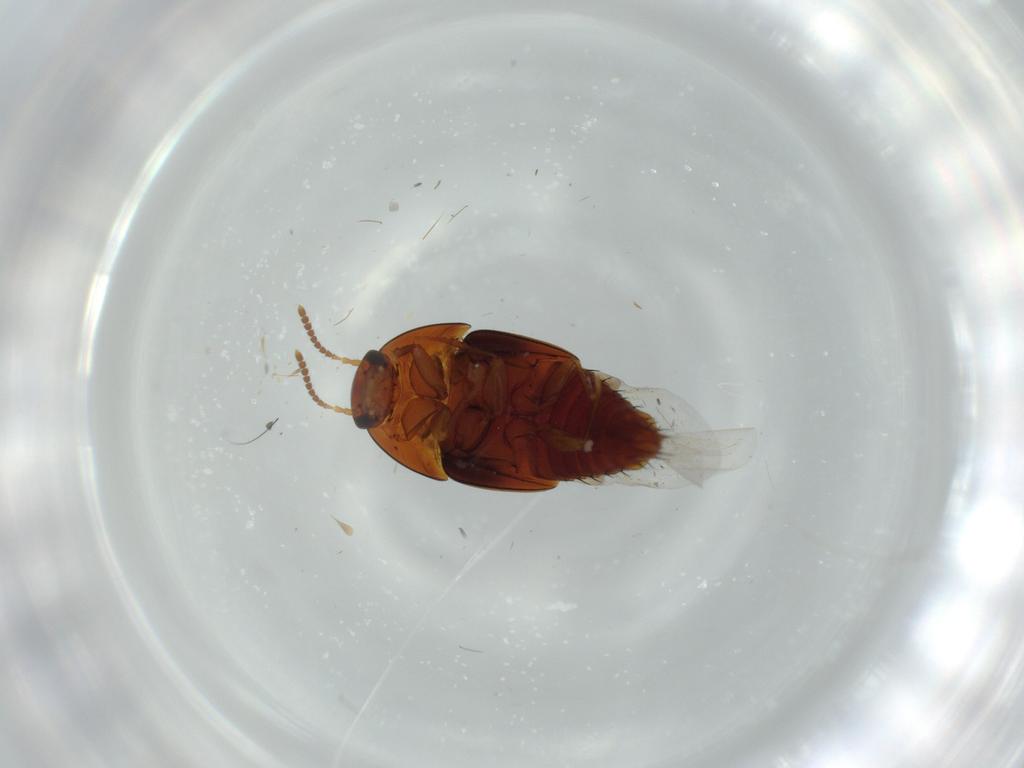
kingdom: Animalia
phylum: Arthropoda
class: Insecta
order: Coleoptera
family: Staphylinidae
